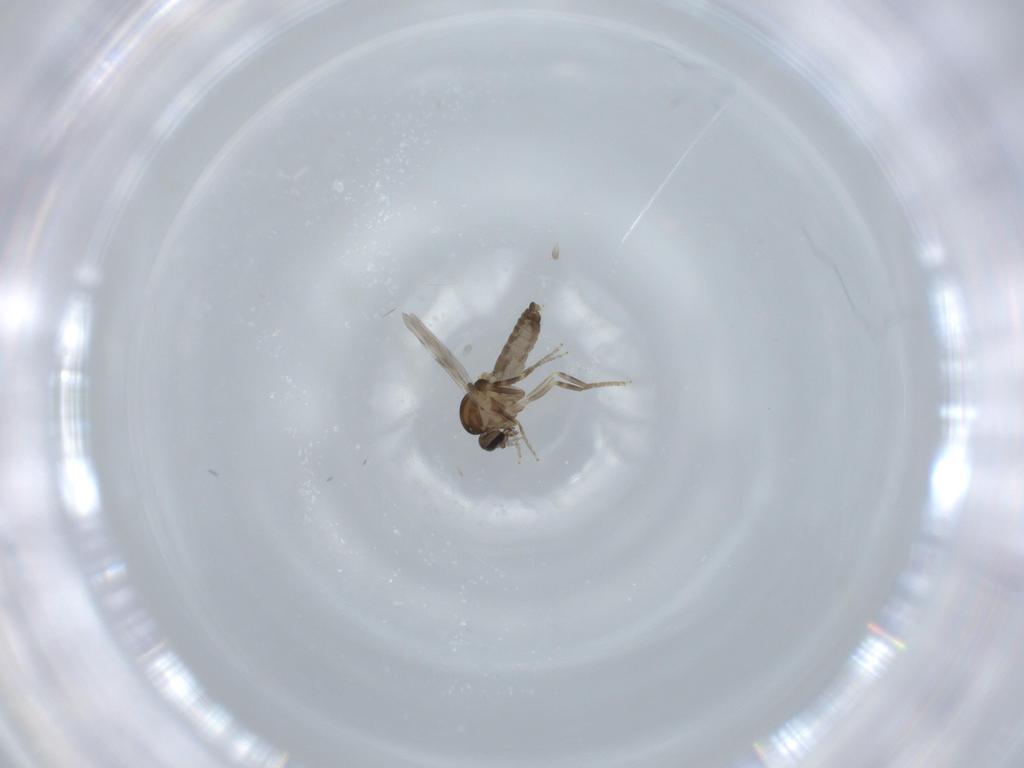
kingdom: Animalia
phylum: Arthropoda
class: Insecta
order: Diptera
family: Ceratopogonidae
